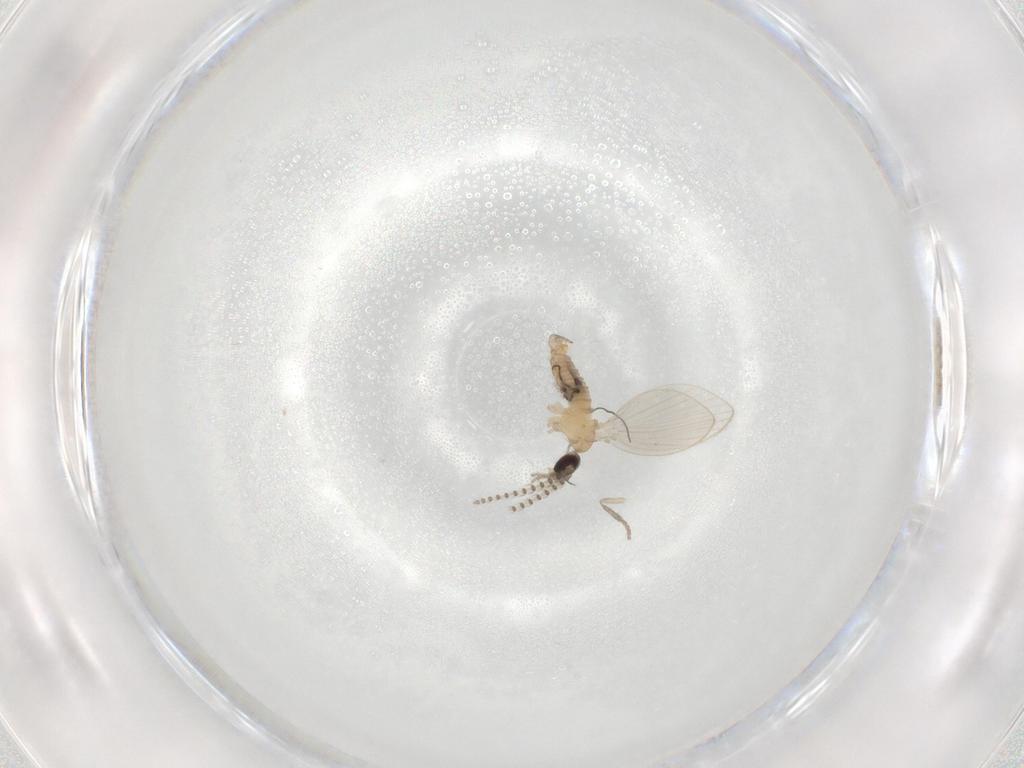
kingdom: Animalia
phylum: Arthropoda
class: Insecta
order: Diptera
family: Psychodidae
